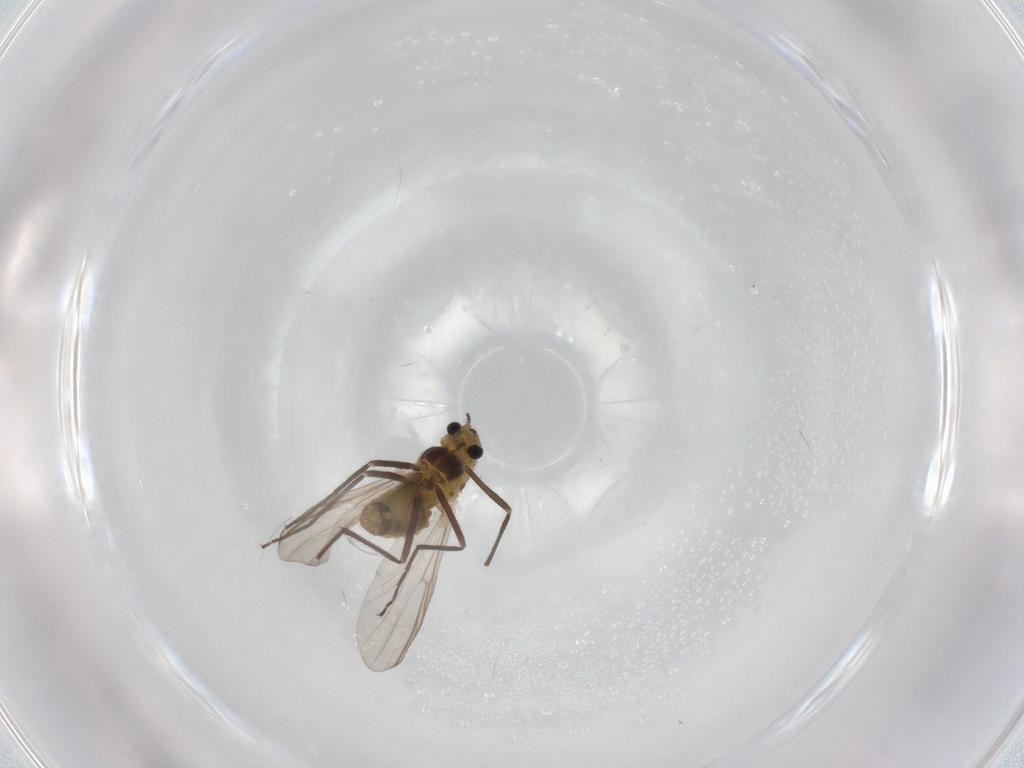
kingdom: Animalia
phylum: Arthropoda
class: Insecta
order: Diptera
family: Chironomidae
